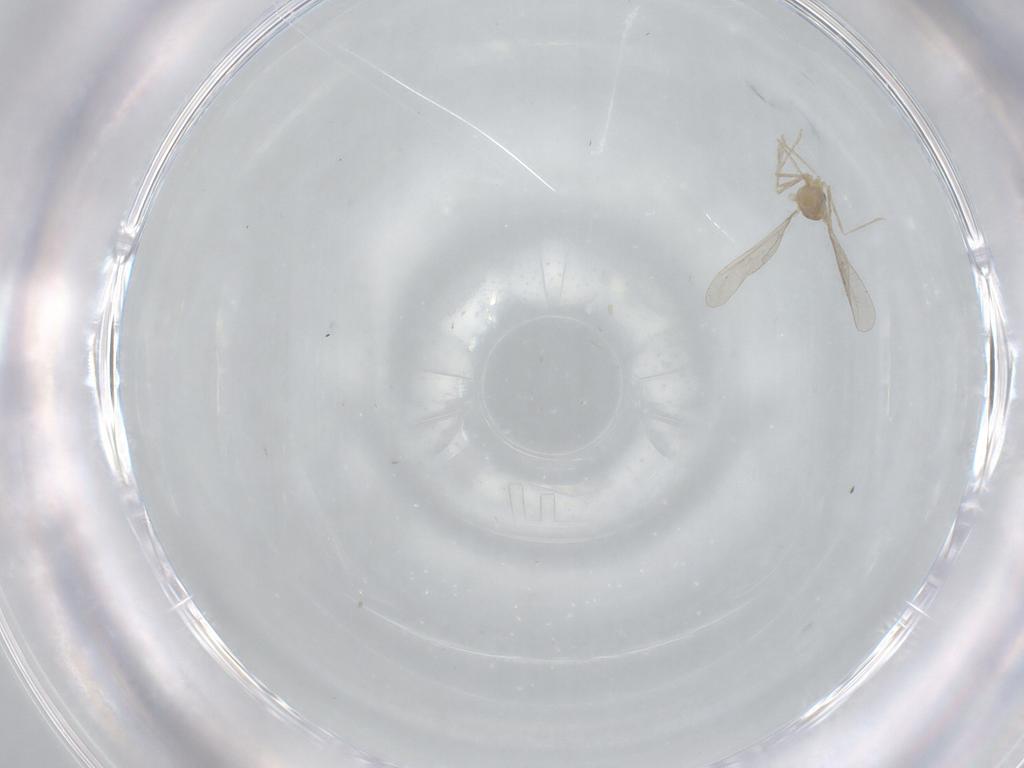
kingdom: Animalia
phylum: Arthropoda
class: Insecta
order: Diptera
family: Cecidomyiidae
